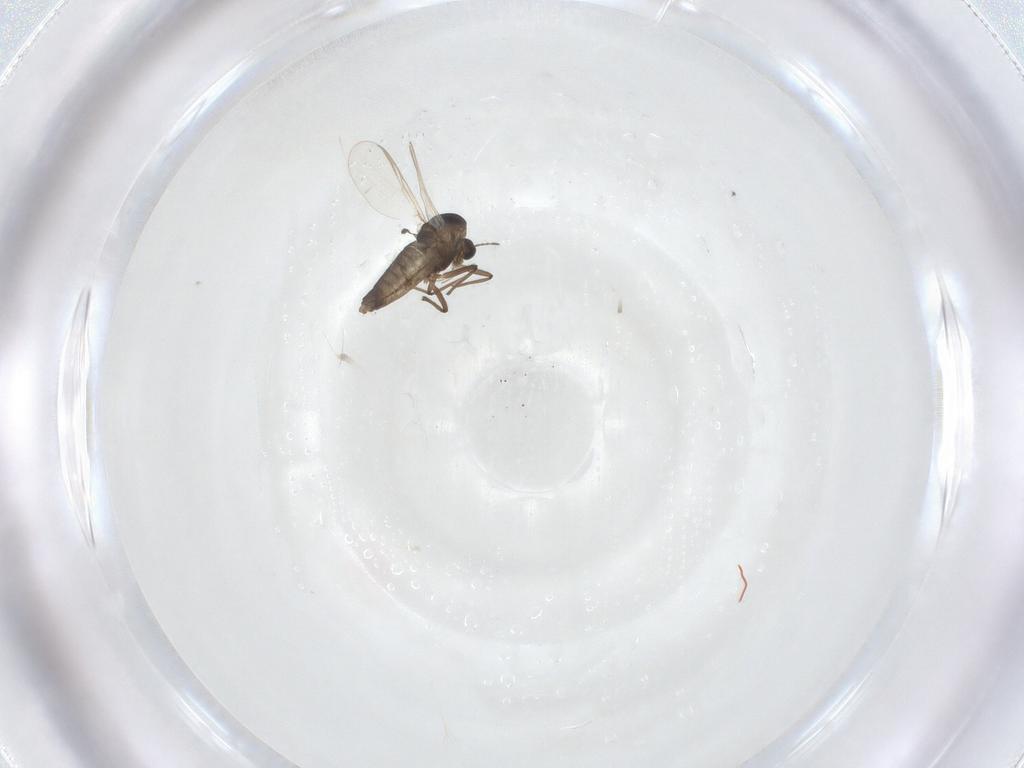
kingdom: Animalia
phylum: Arthropoda
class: Insecta
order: Diptera
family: Chironomidae
